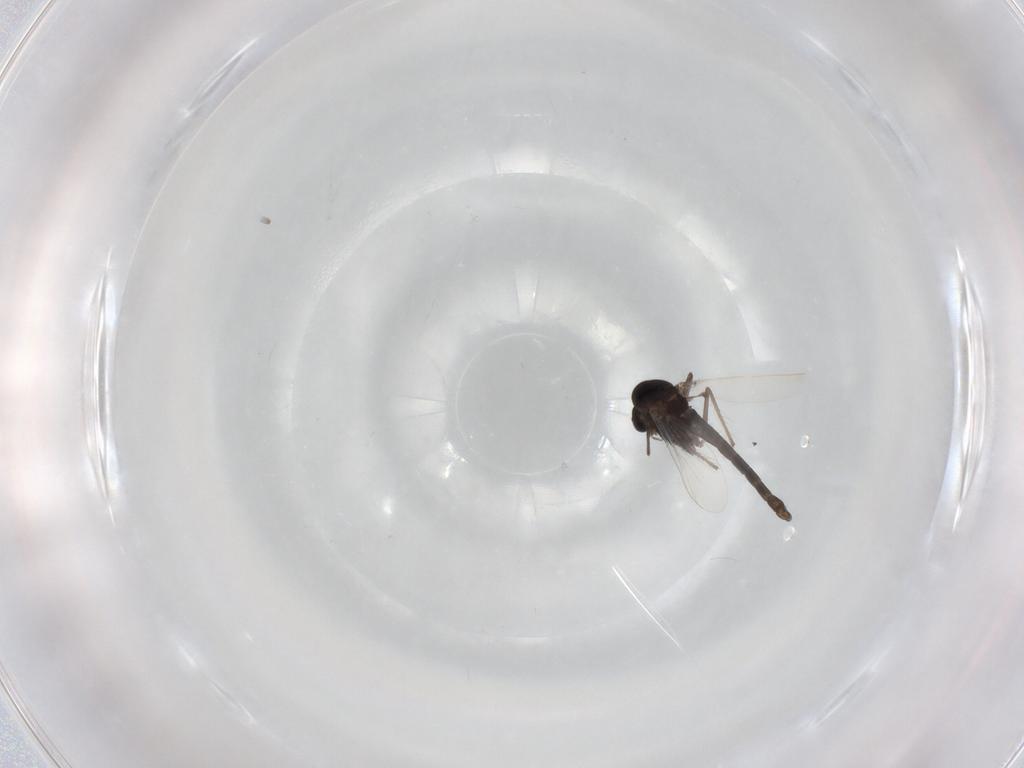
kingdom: Animalia
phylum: Arthropoda
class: Insecta
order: Diptera
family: Chironomidae
